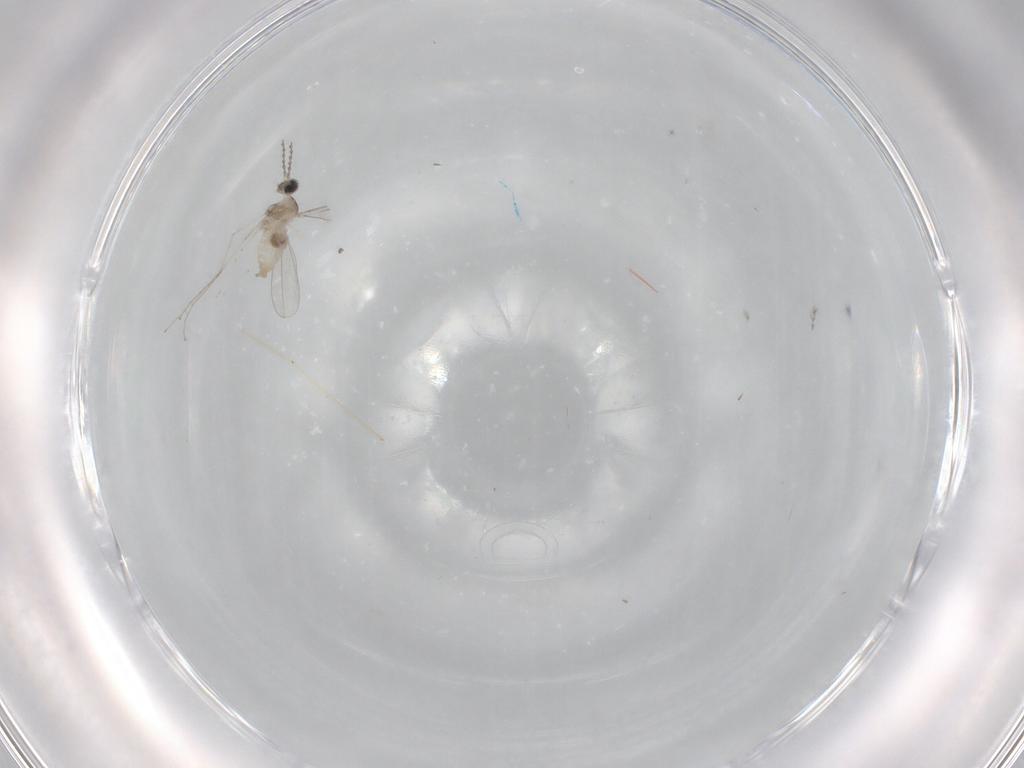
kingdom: Animalia
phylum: Arthropoda
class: Insecta
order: Diptera
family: Cecidomyiidae
